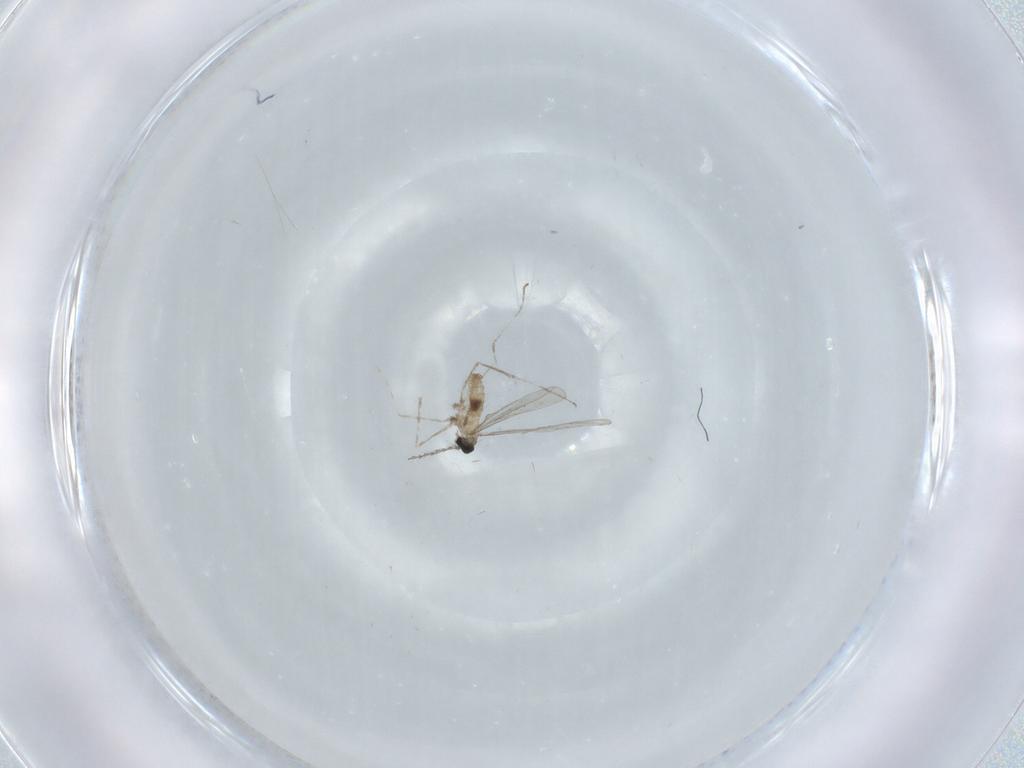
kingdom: Animalia
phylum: Arthropoda
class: Insecta
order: Diptera
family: Cecidomyiidae
